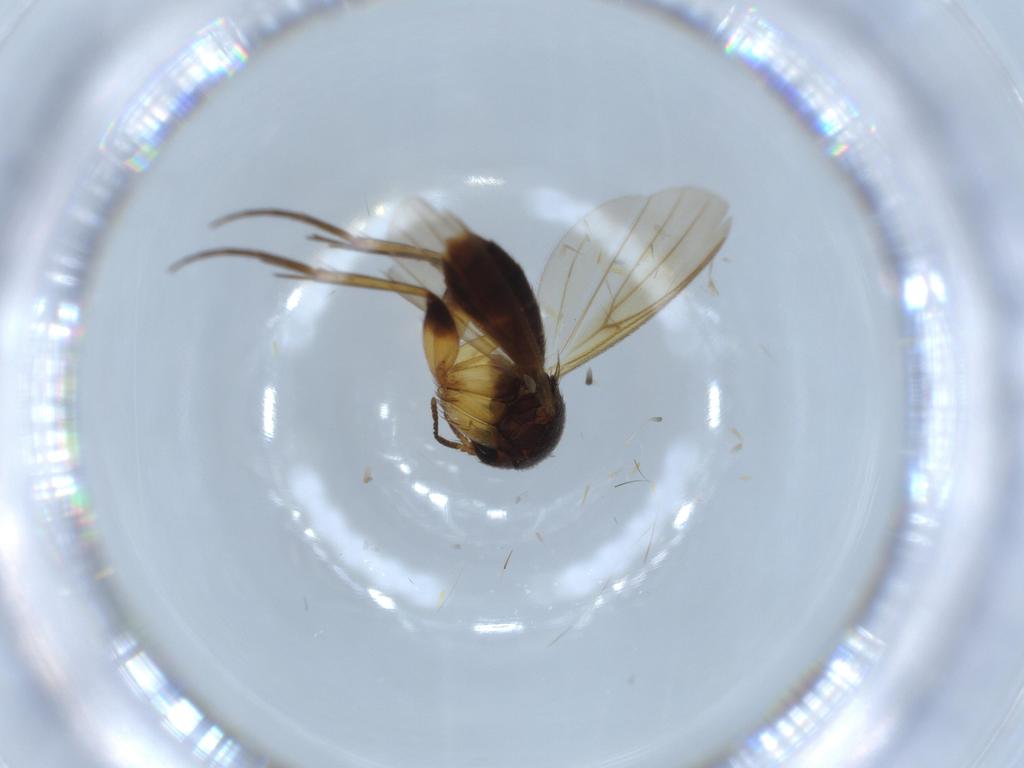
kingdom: Animalia
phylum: Arthropoda
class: Insecta
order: Diptera
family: Mycetophilidae
